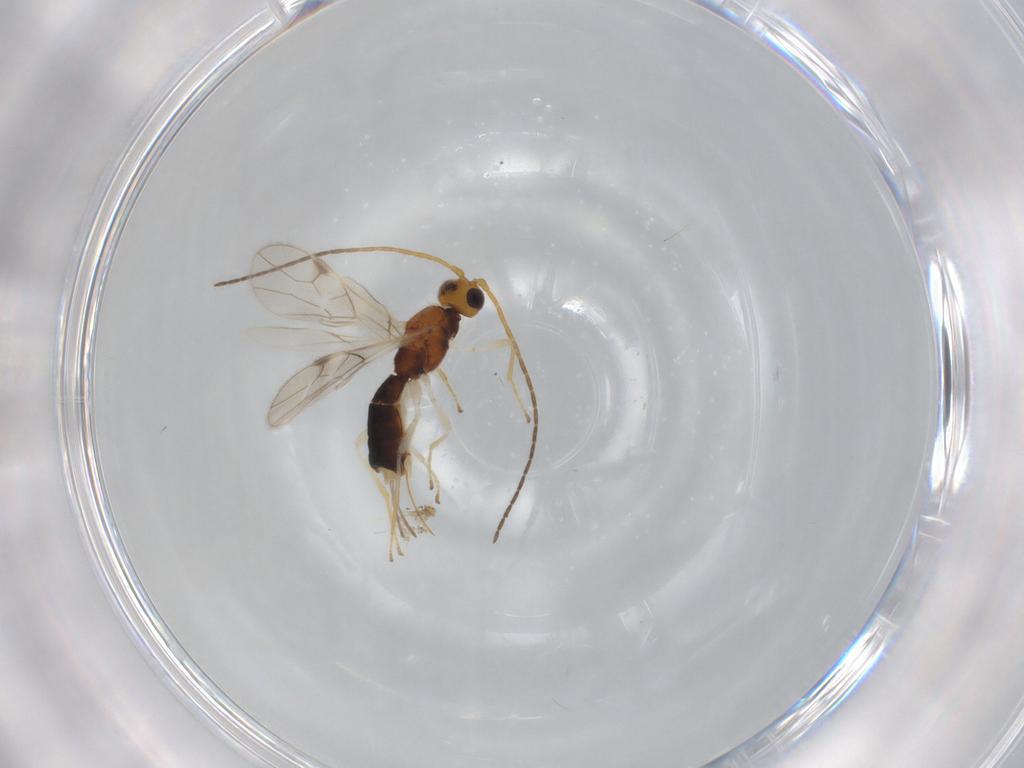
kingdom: Animalia
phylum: Arthropoda
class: Insecta
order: Hymenoptera
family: Braconidae
